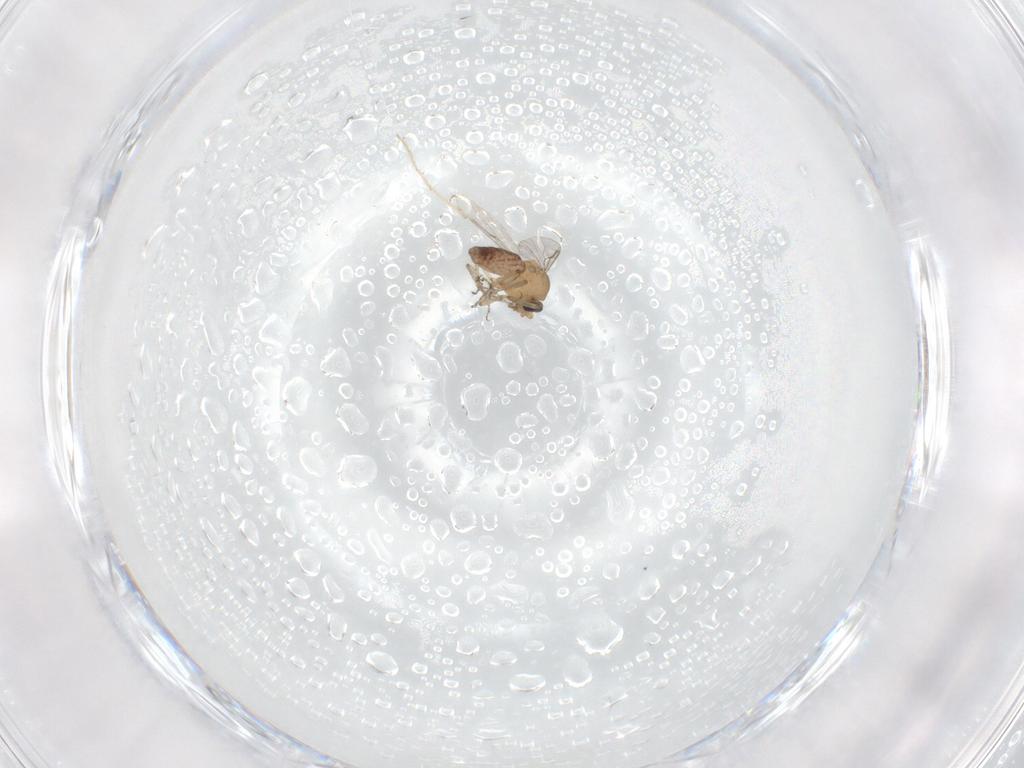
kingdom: Animalia
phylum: Arthropoda
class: Insecta
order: Diptera
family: Ceratopogonidae
